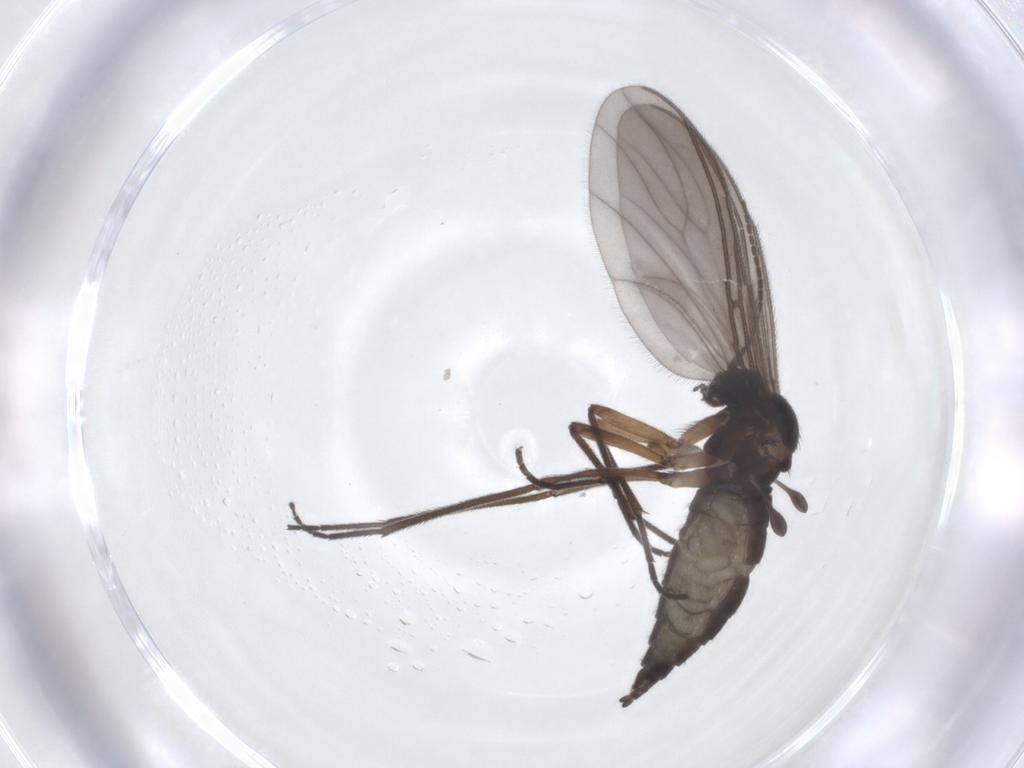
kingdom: Animalia
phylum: Arthropoda
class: Insecta
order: Diptera
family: Sciaridae
